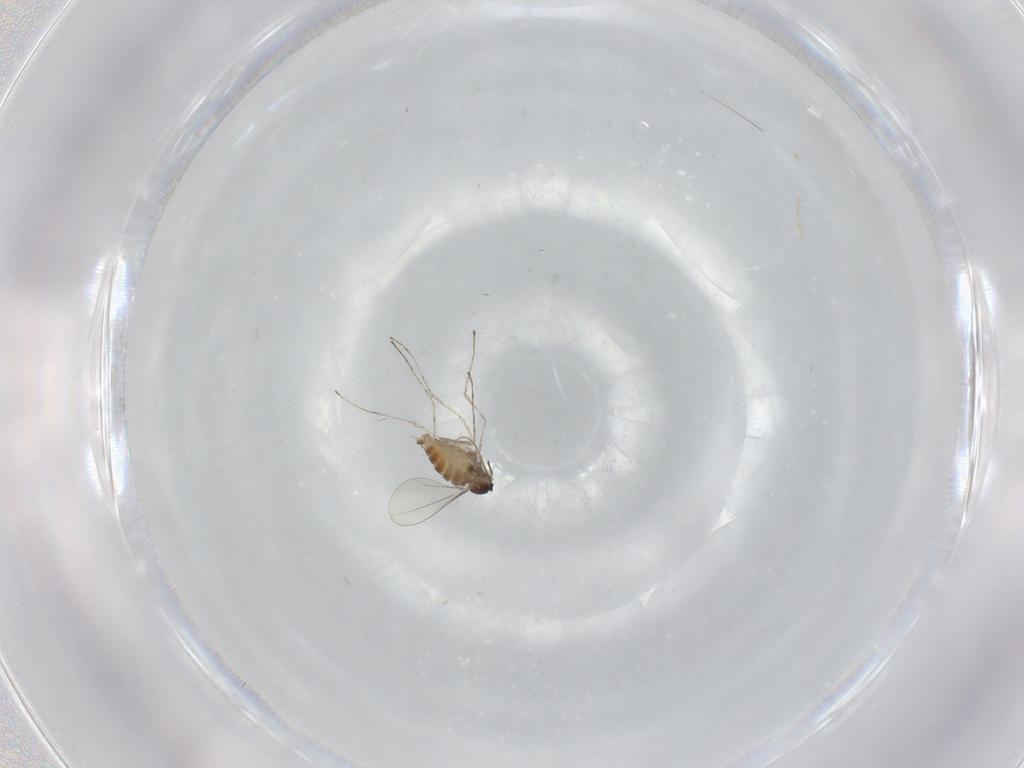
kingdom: Animalia
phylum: Arthropoda
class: Insecta
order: Diptera
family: Cecidomyiidae
